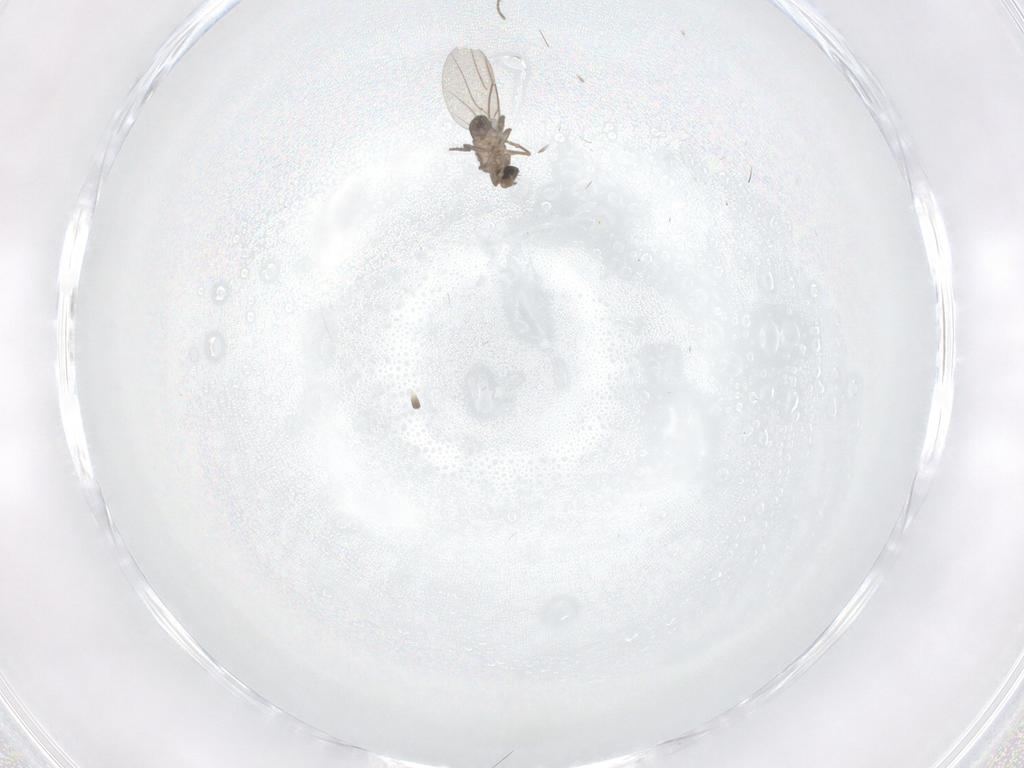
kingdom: Animalia
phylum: Arthropoda
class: Insecta
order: Diptera
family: Phoridae
